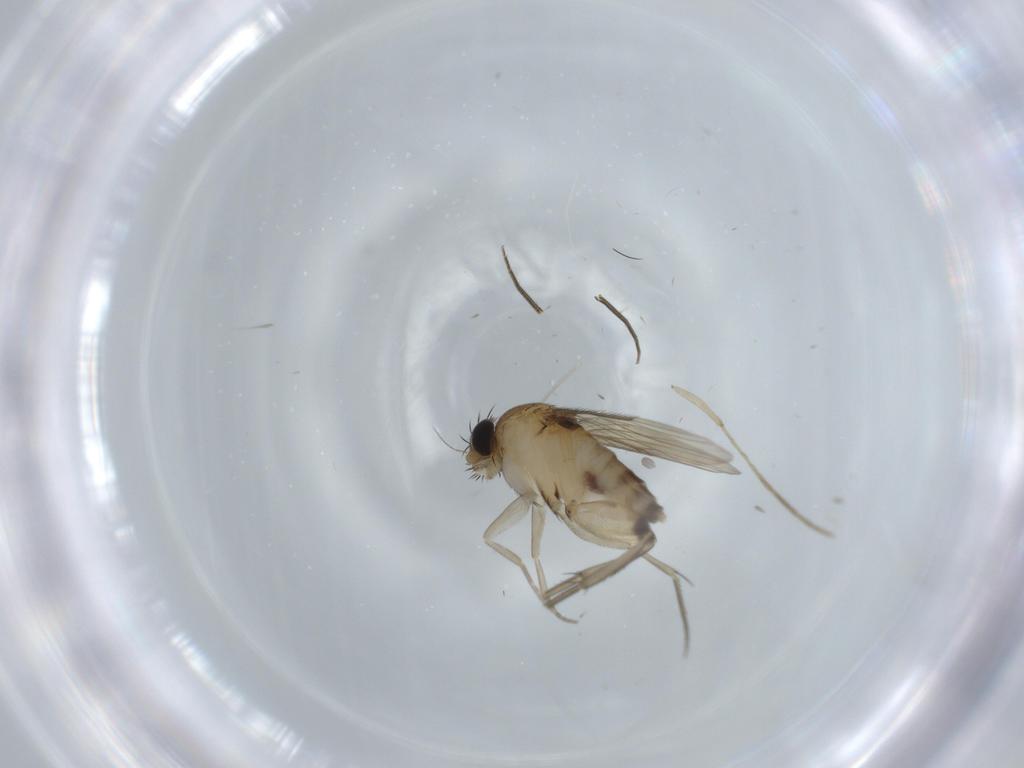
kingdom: Animalia
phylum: Arthropoda
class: Insecta
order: Diptera
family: Phoridae
